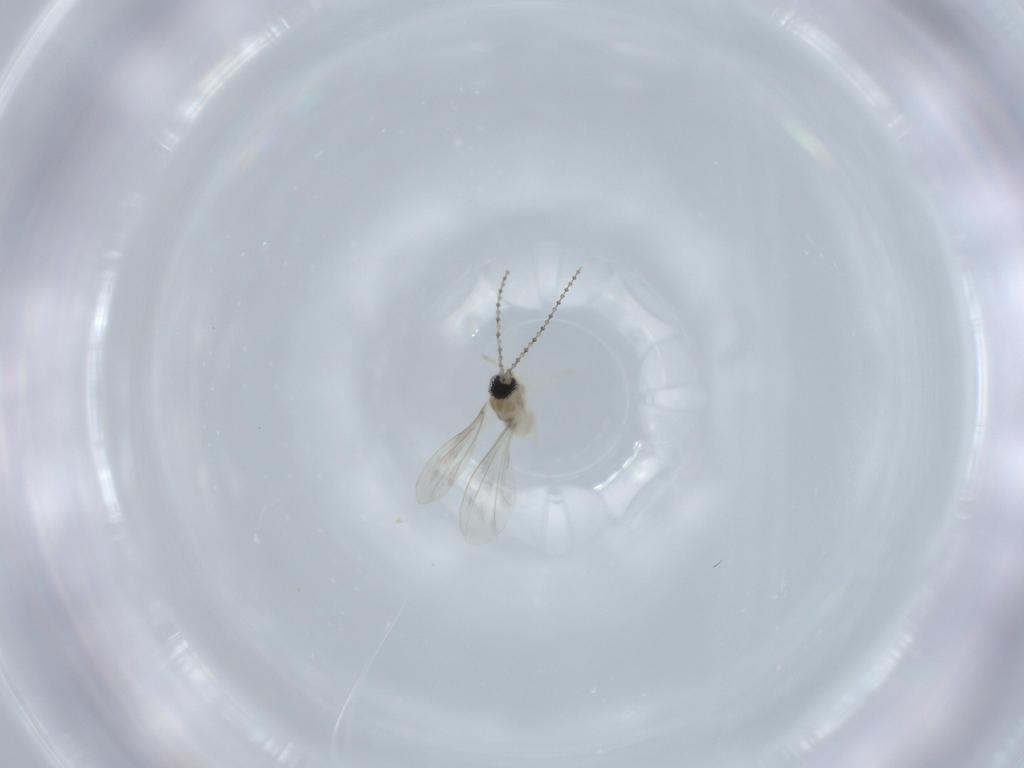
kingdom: Animalia
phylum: Arthropoda
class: Insecta
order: Diptera
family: Cecidomyiidae
